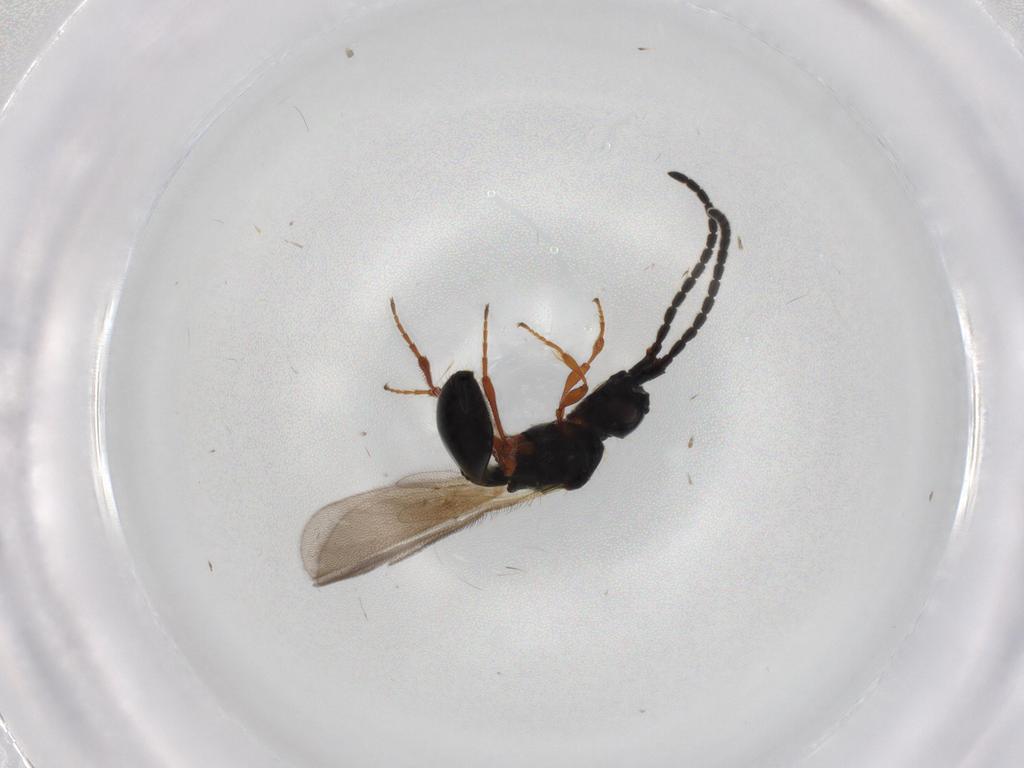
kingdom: Animalia
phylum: Arthropoda
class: Insecta
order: Hymenoptera
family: Diapriidae
